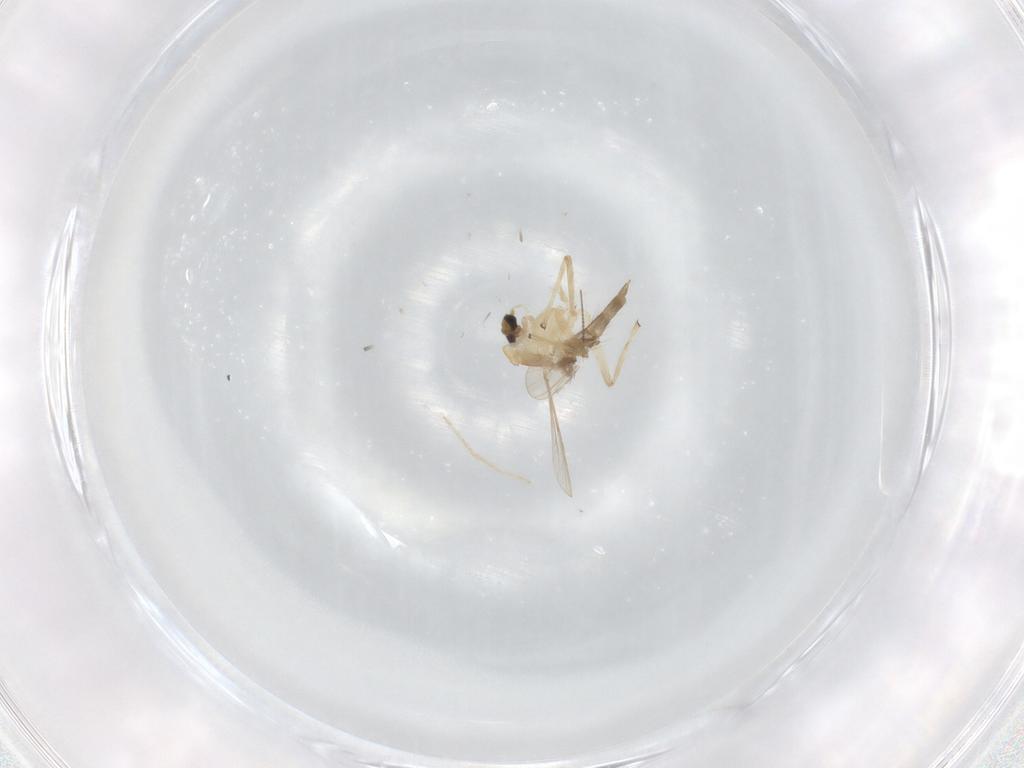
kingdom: Animalia
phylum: Arthropoda
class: Insecta
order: Diptera
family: Chironomidae
